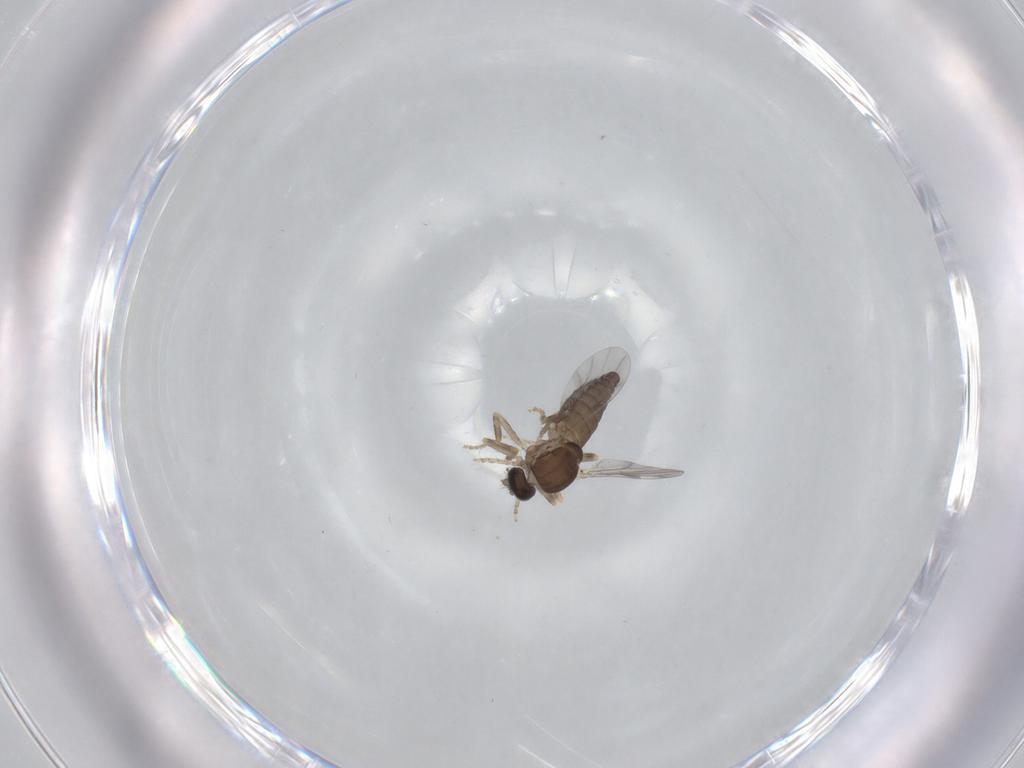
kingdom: Animalia
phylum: Arthropoda
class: Insecta
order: Diptera
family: Ceratopogonidae
